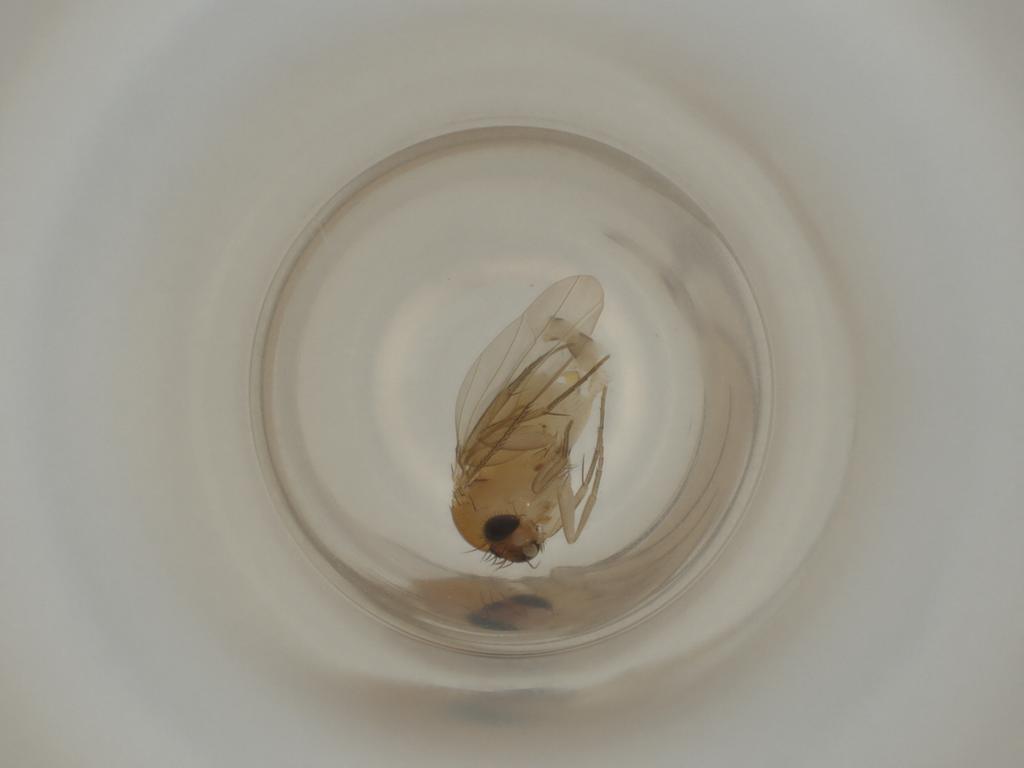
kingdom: Animalia
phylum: Arthropoda
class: Insecta
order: Diptera
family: Phoridae
